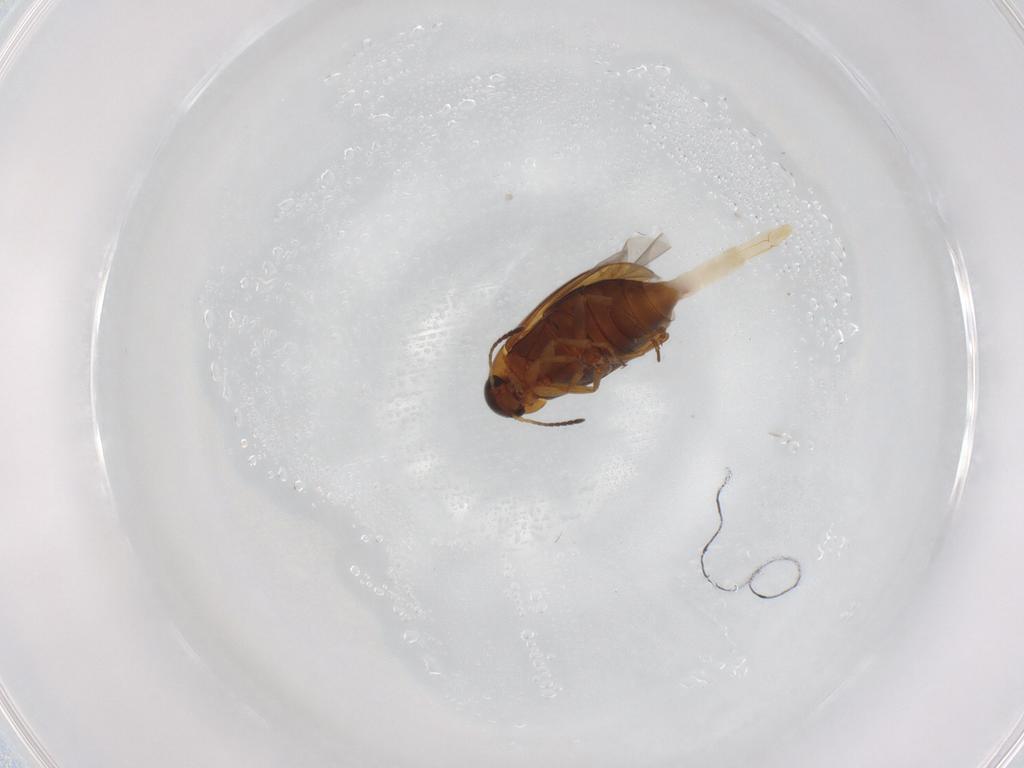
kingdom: Animalia
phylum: Arthropoda
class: Insecta
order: Coleoptera
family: Scraptiidae
